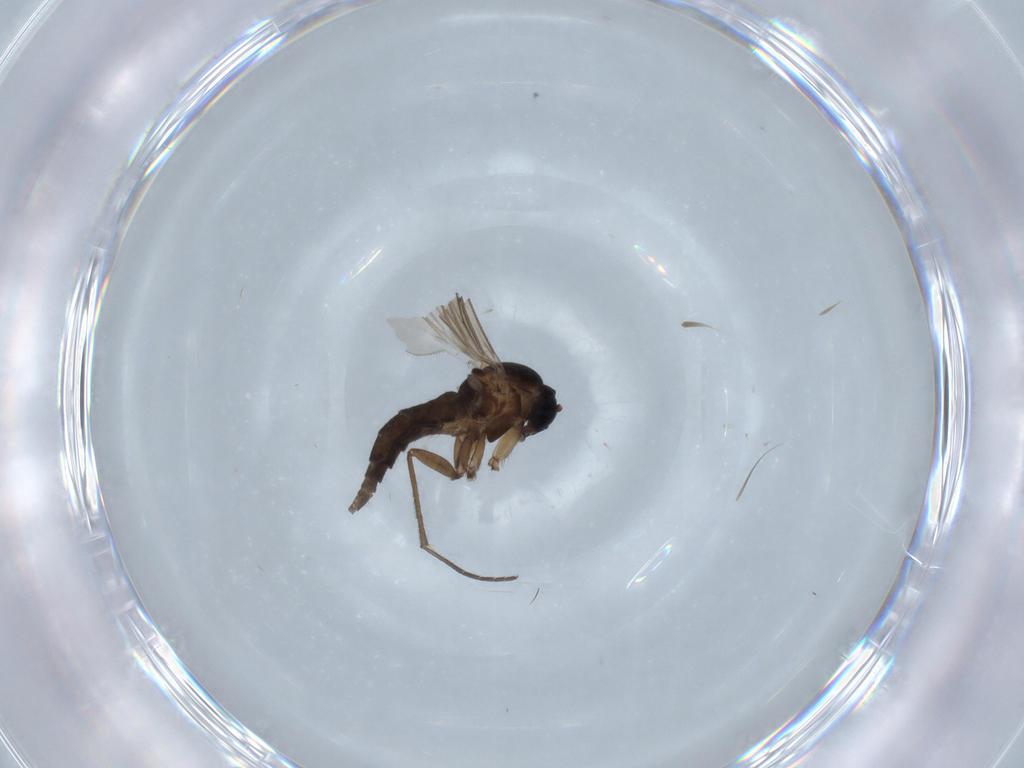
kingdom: Animalia
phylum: Arthropoda
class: Insecta
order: Diptera
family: Sciaridae
